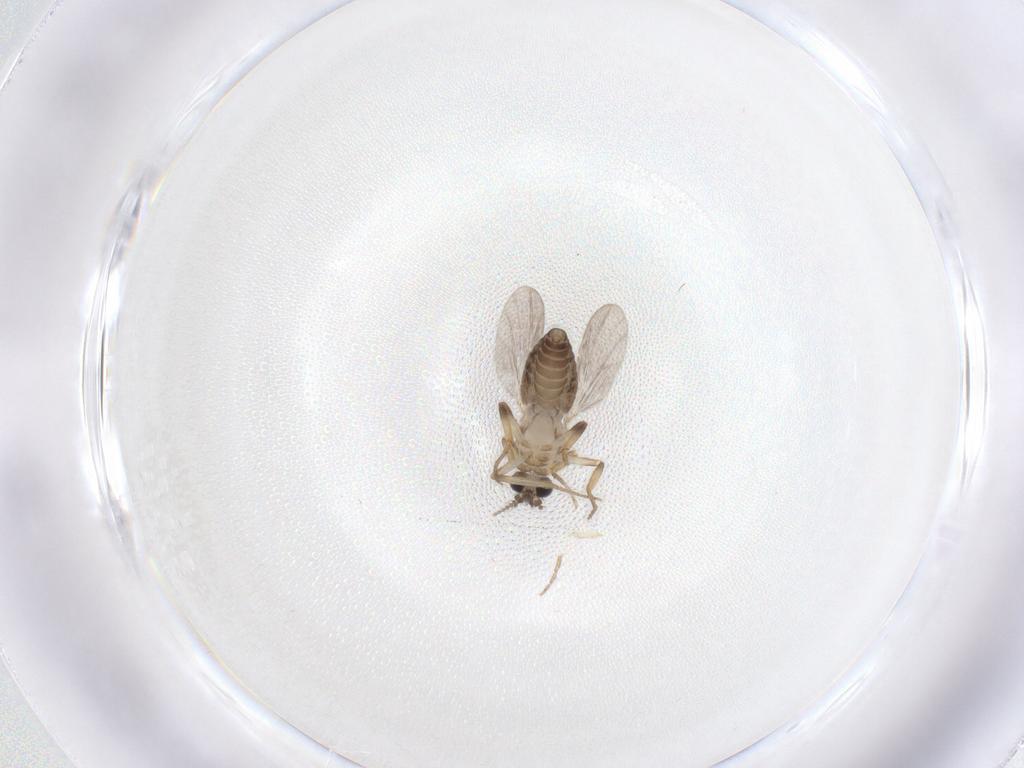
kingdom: Animalia
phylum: Arthropoda
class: Insecta
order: Diptera
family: Ceratopogonidae
